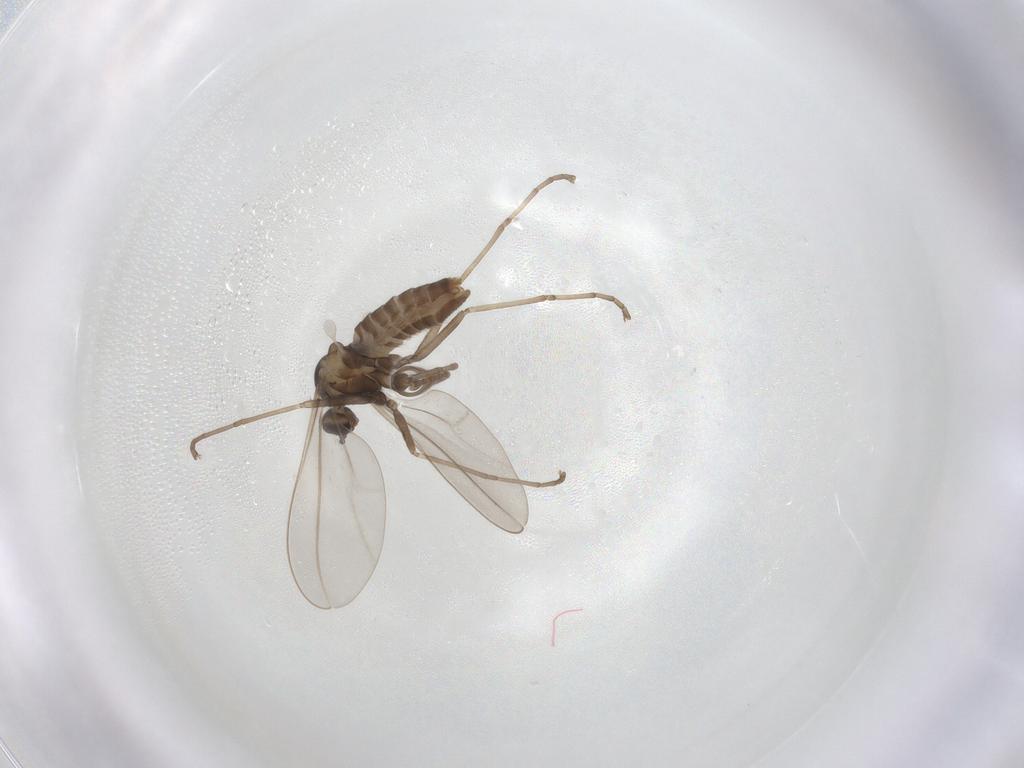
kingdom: Animalia
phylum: Arthropoda
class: Insecta
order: Diptera
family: Cecidomyiidae
